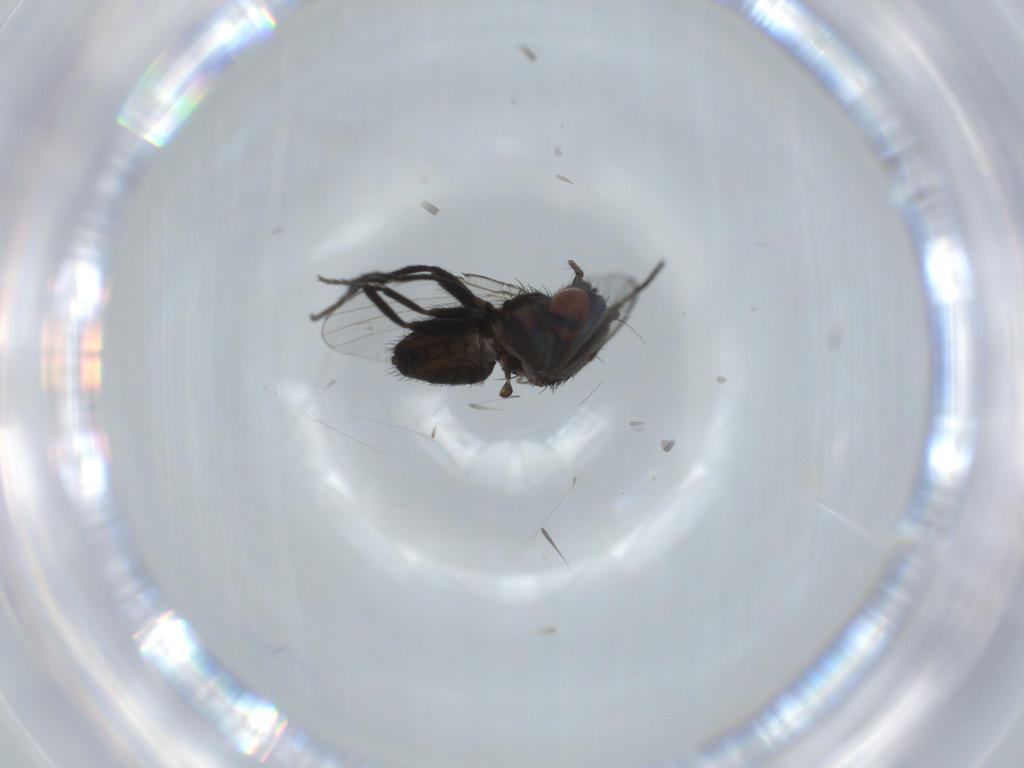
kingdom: Animalia
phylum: Arthropoda
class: Insecta
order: Diptera
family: Milichiidae
